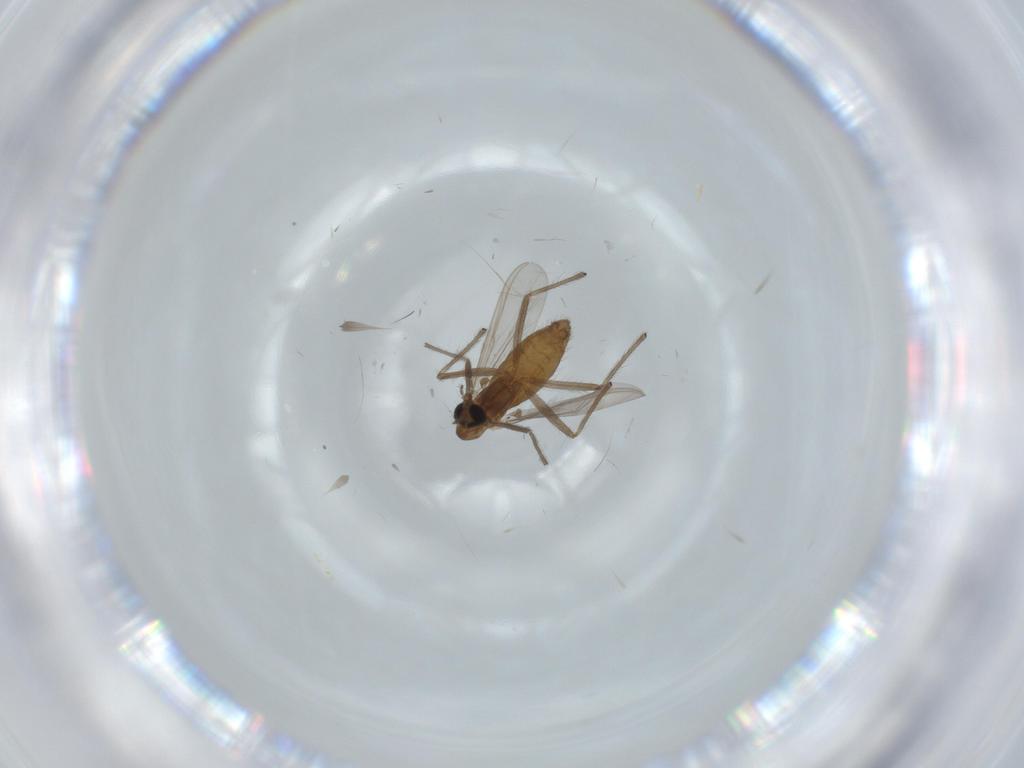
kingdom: Animalia
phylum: Arthropoda
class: Insecta
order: Diptera
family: Chironomidae
